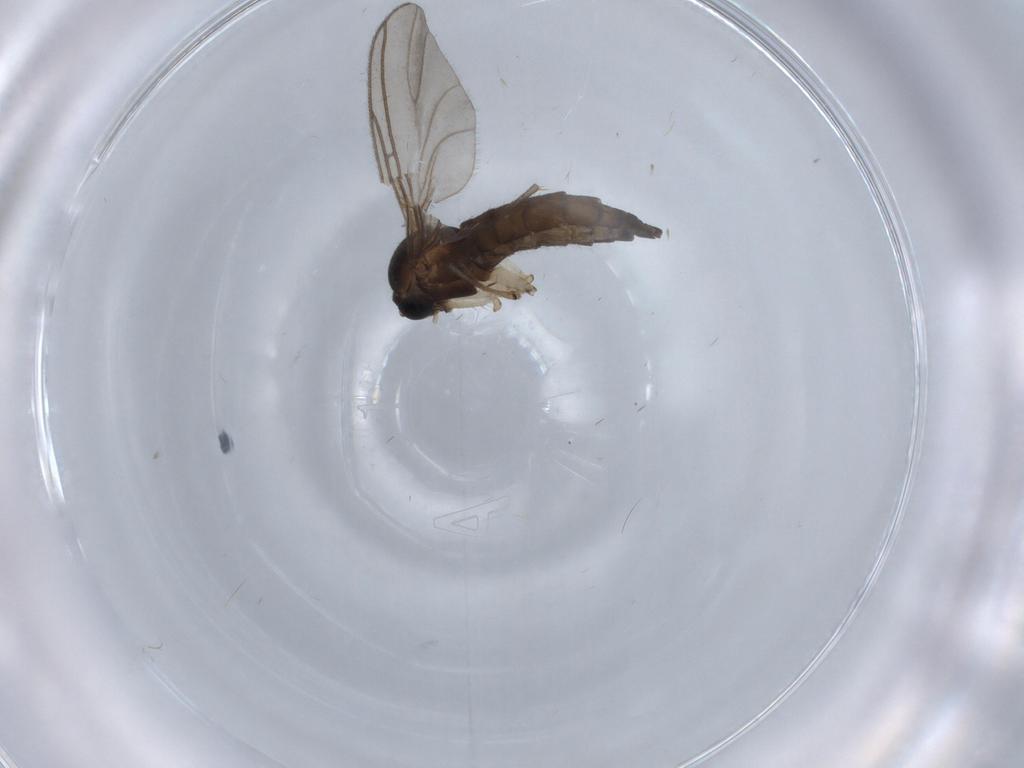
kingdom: Animalia
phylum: Arthropoda
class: Insecta
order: Diptera
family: Sciaridae
